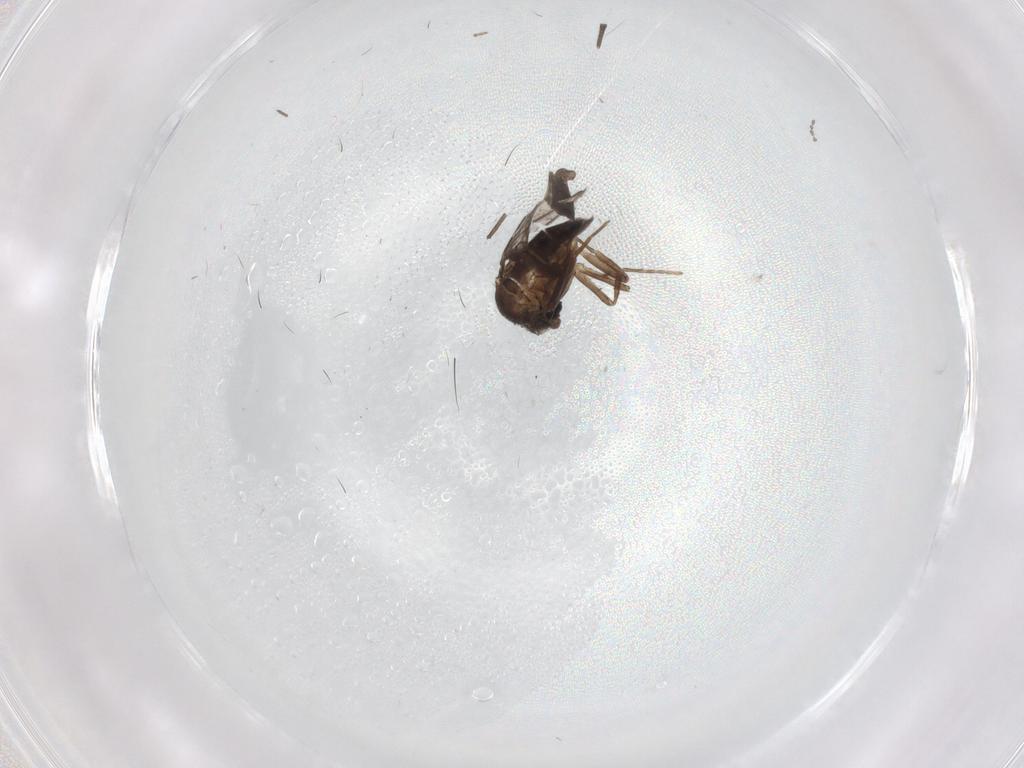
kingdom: Animalia
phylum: Arthropoda
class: Insecta
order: Diptera
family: Chironomidae
